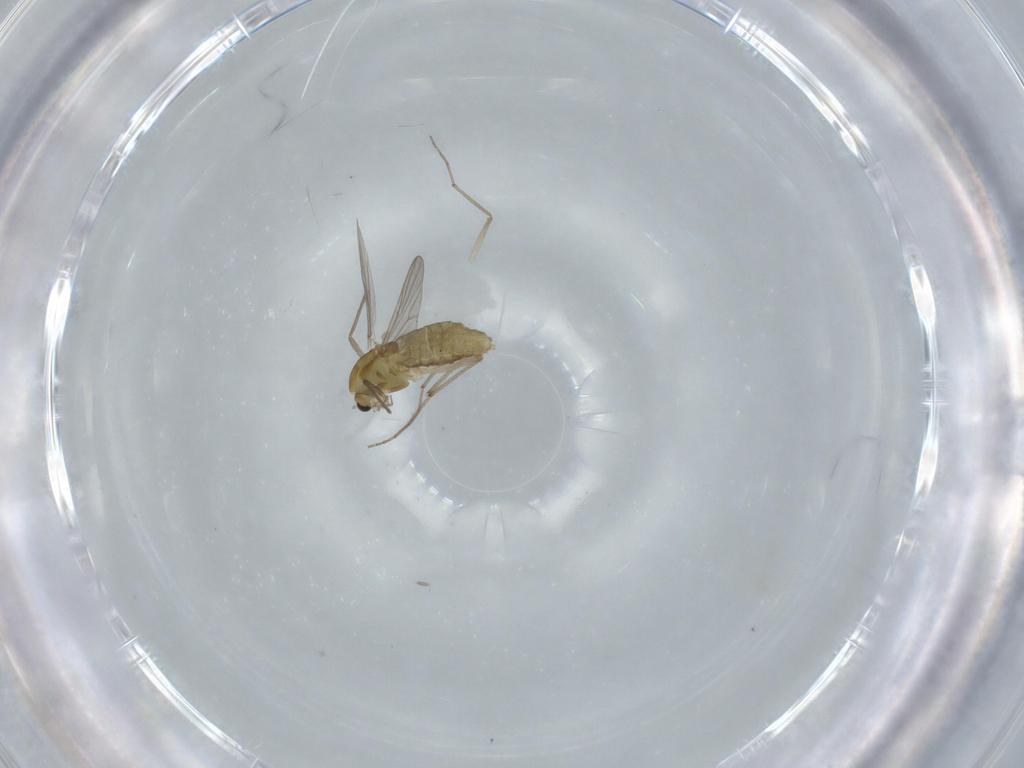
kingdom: Animalia
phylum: Arthropoda
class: Insecta
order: Diptera
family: Chironomidae
